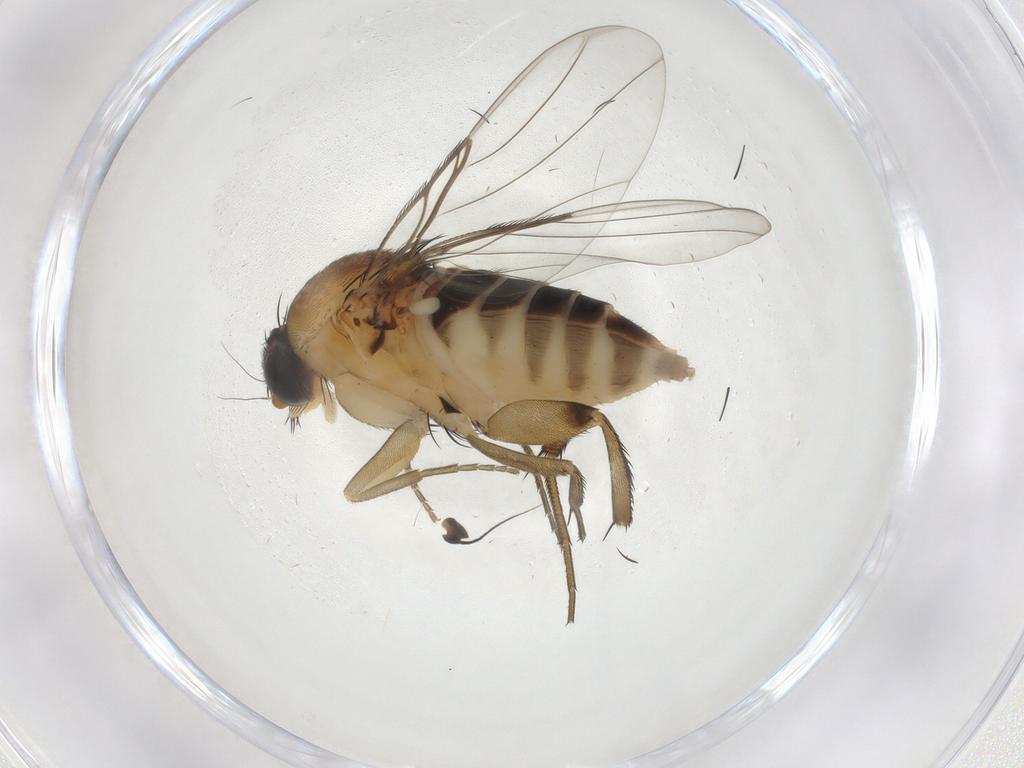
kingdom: Animalia
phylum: Arthropoda
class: Insecta
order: Diptera
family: Phoridae
